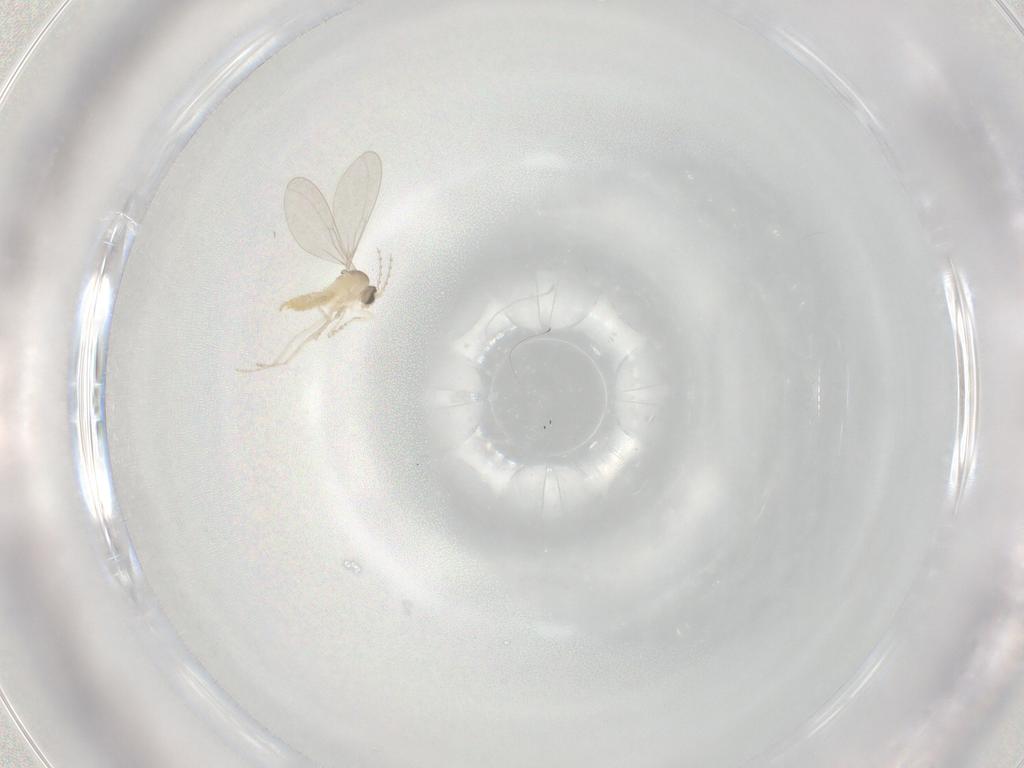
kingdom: Animalia
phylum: Arthropoda
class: Insecta
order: Diptera
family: Cecidomyiidae
